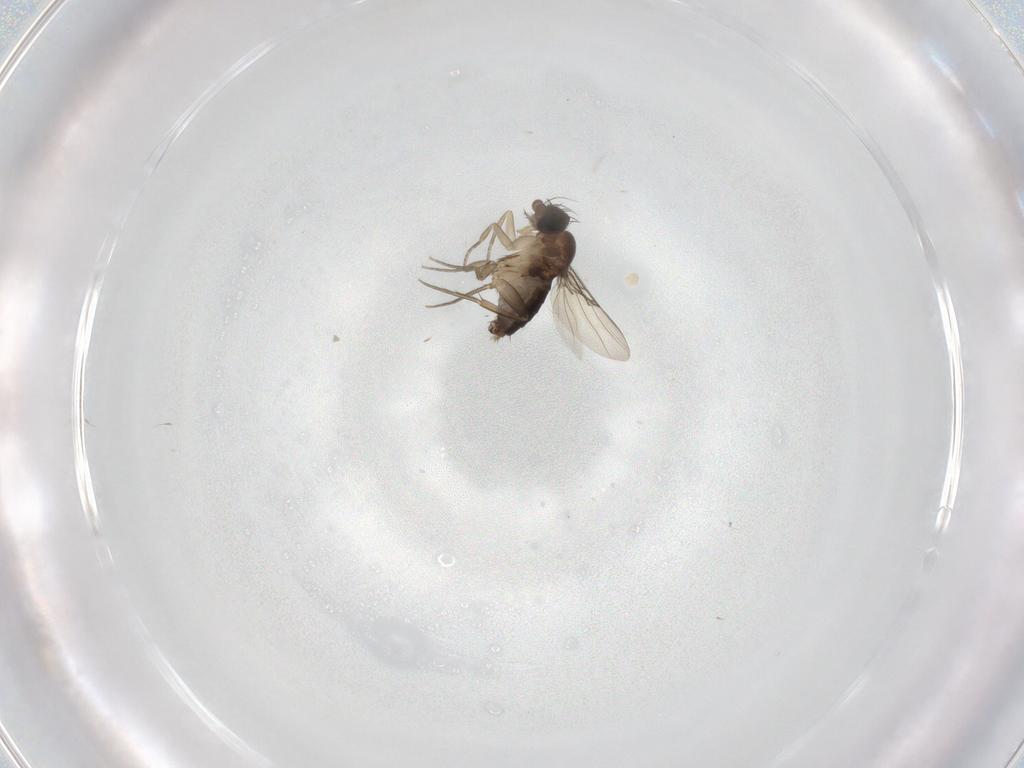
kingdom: Animalia
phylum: Arthropoda
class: Insecta
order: Diptera
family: Phoridae
